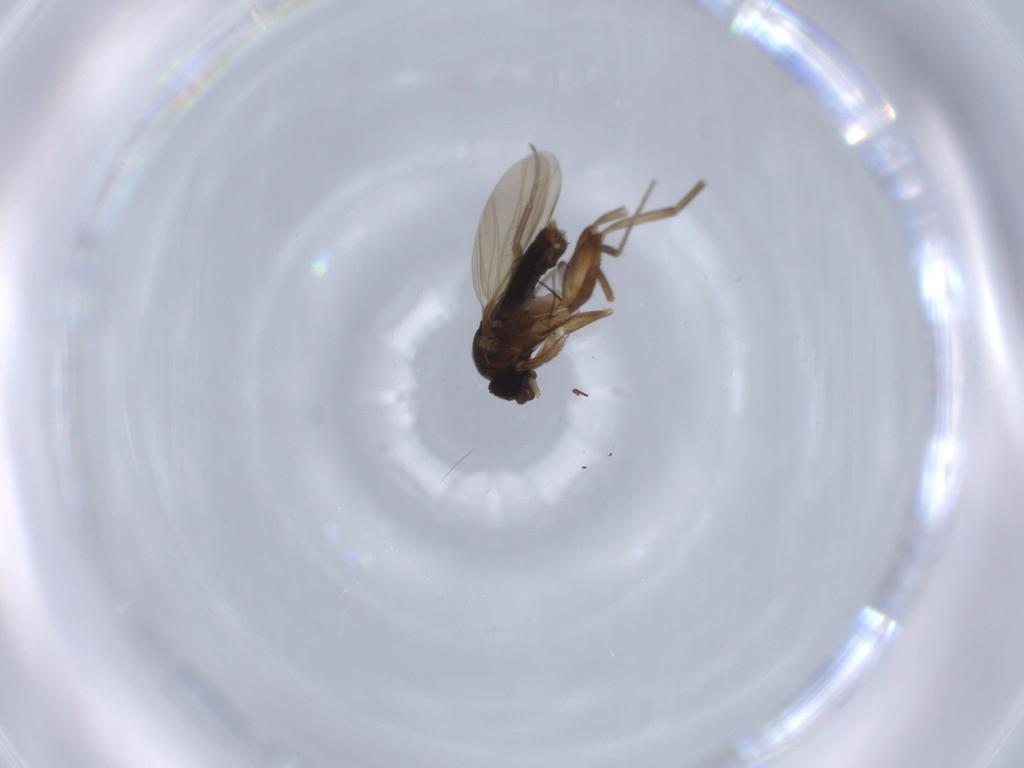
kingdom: Animalia
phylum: Arthropoda
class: Insecta
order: Diptera
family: Phoridae
